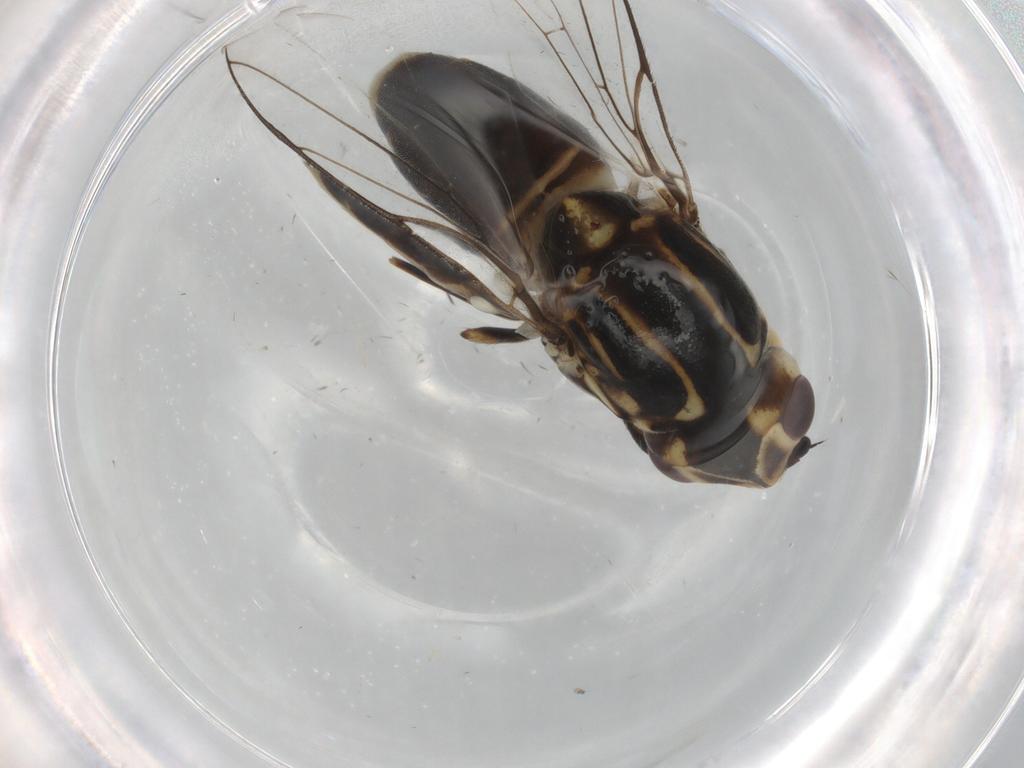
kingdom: Animalia
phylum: Arthropoda
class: Insecta
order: Diptera
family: Chloropidae
